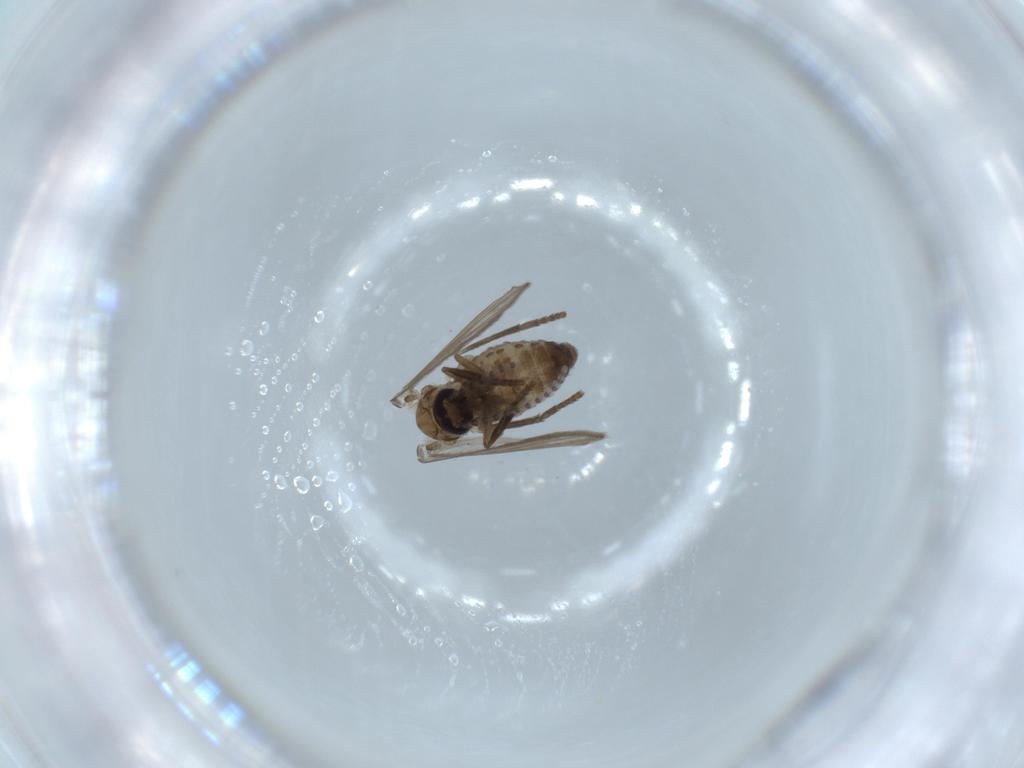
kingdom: Animalia
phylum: Arthropoda
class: Insecta
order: Diptera
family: Psychodidae
